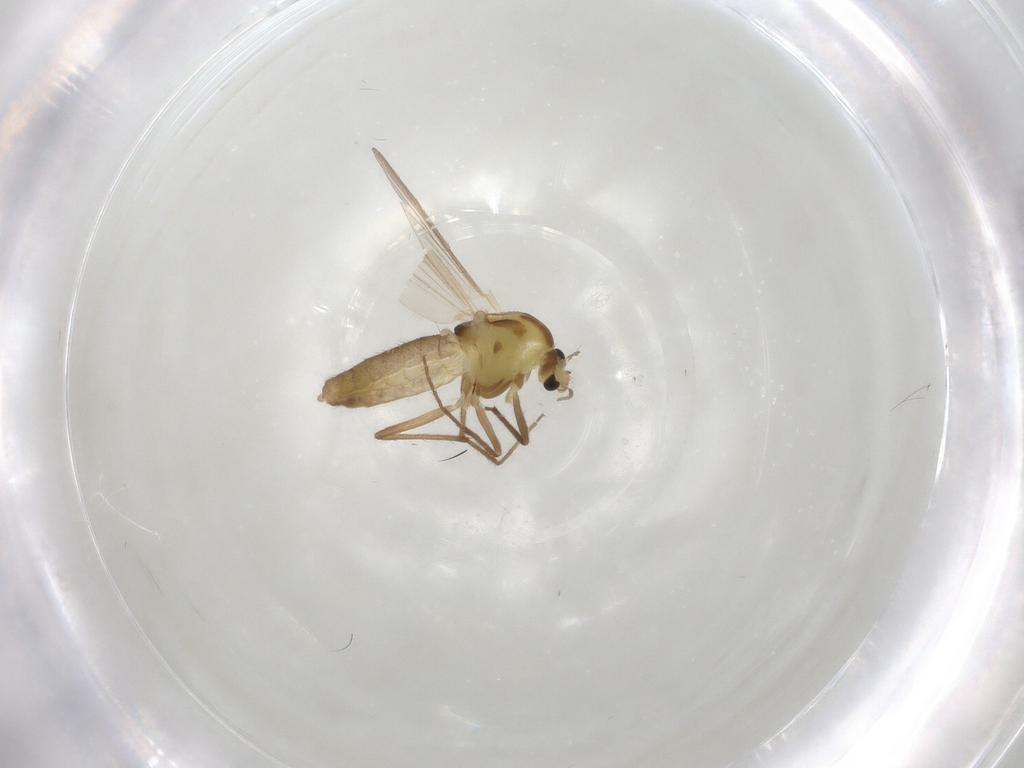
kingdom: Animalia
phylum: Arthropoda
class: Insecta
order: Diptera
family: Chironomidae
